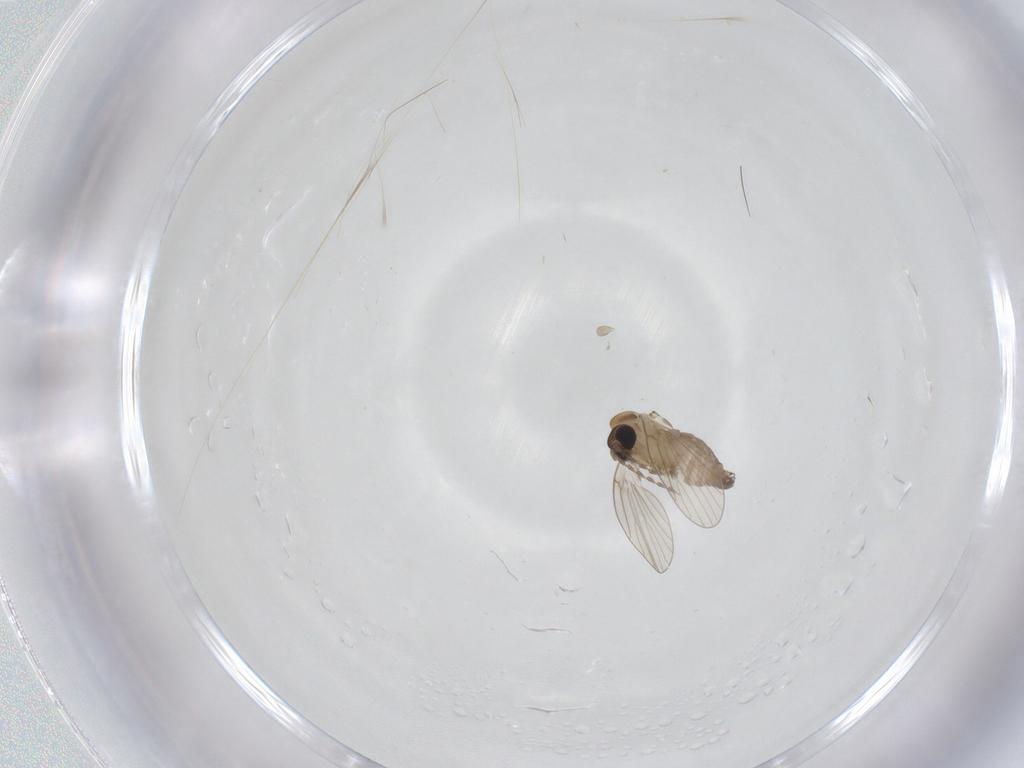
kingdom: Animalia
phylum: Arthropoda
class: Insecta
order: Diptera
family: Psychodidae
